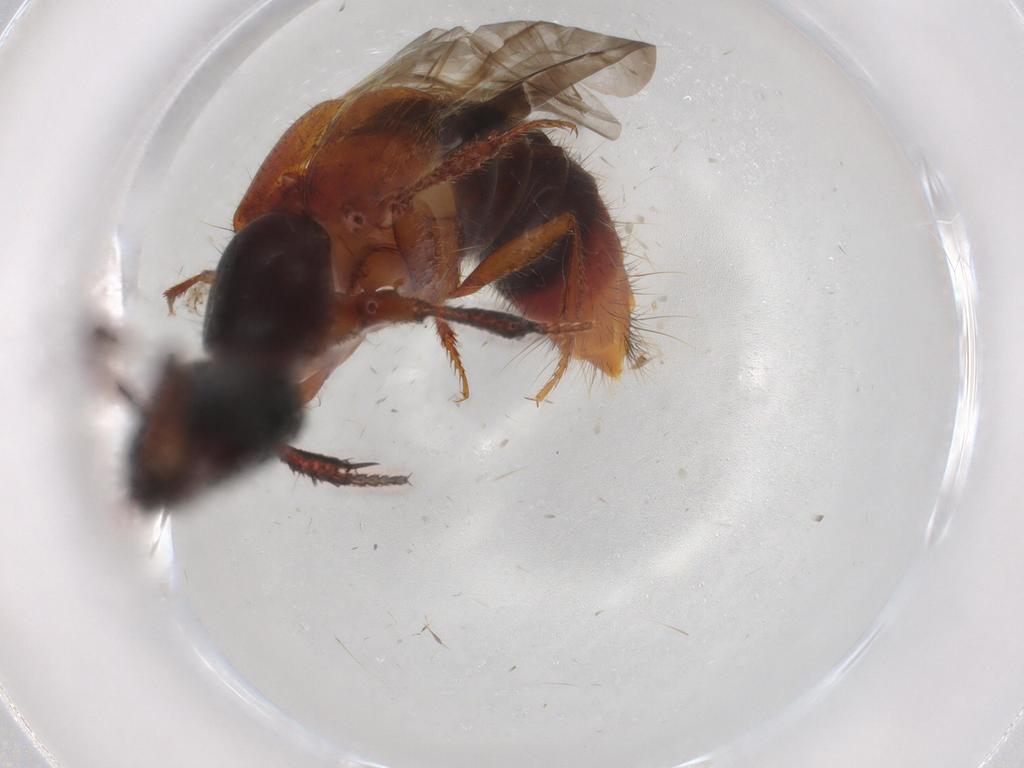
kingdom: Animalia
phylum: Arthropoda
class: Insecta
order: Coleoptera
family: Staphylinidae
